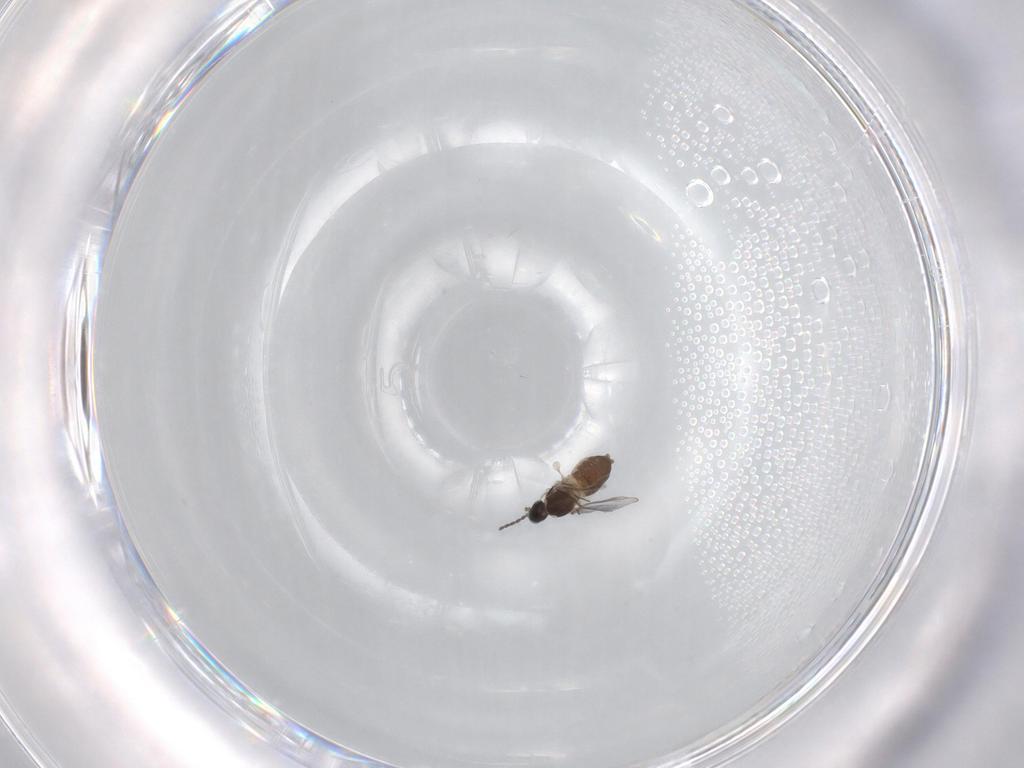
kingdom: Animalia
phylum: Arthropoda
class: Insecta
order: Diptera
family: Cecidomyiidae
